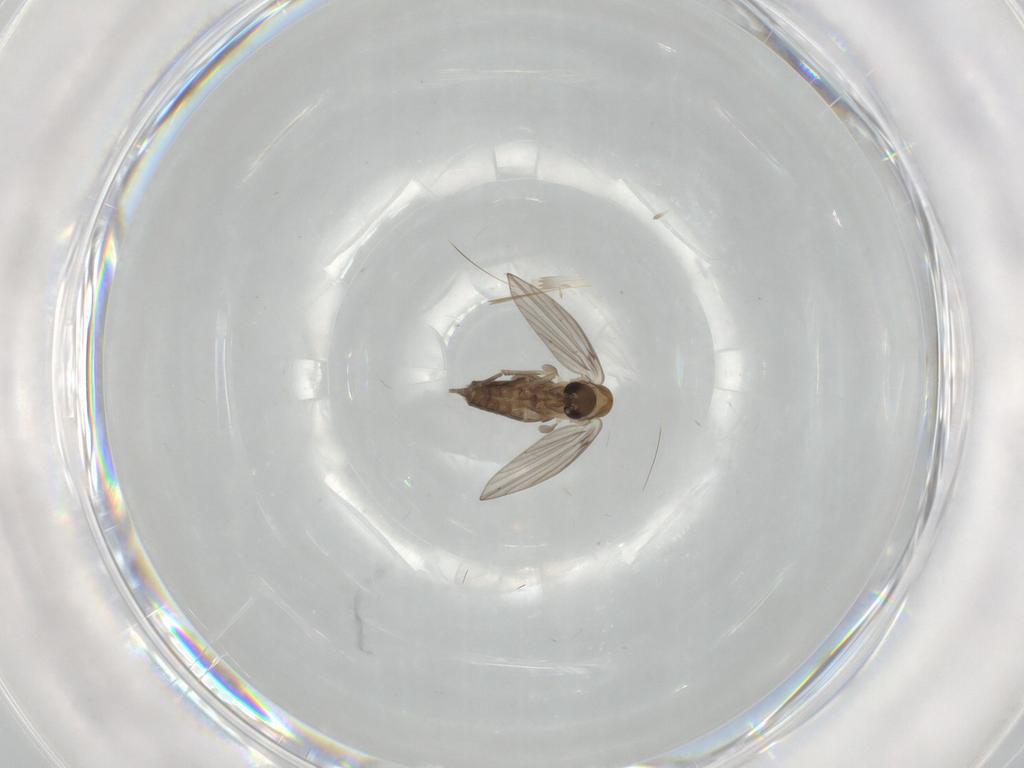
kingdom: Animalia
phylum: Arthropoda
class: Insecta
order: Diptera
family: Psychodidae
